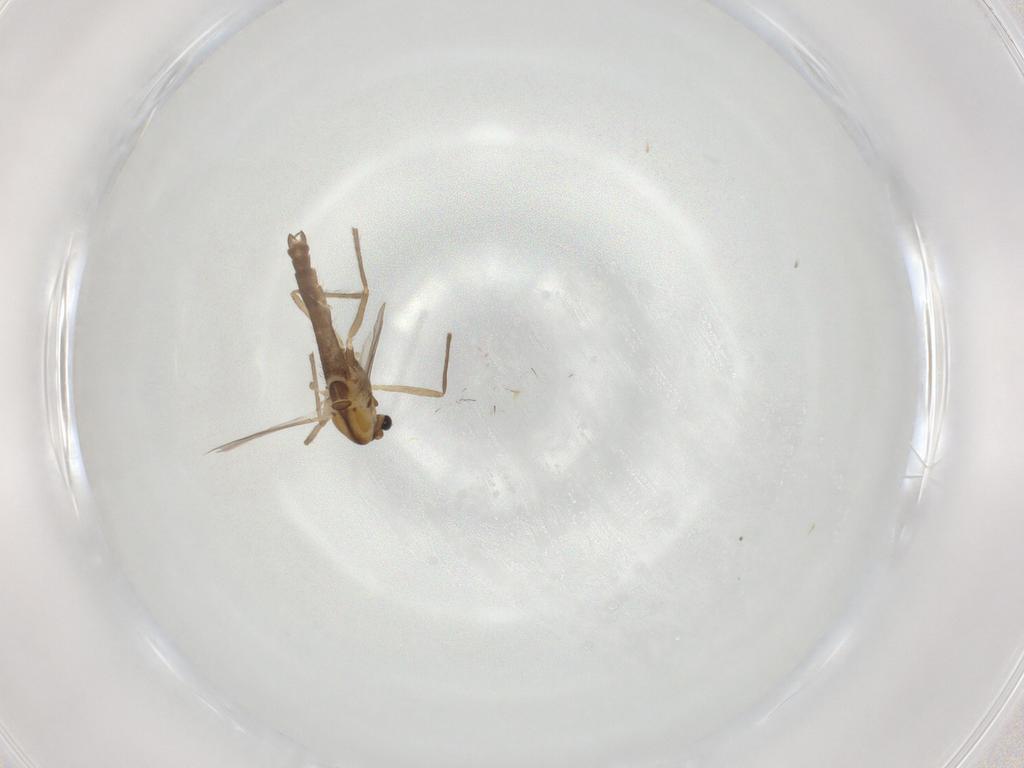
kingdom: Animalia
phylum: Arthropoda
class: Insecta
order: Diptera
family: Chironomidae
